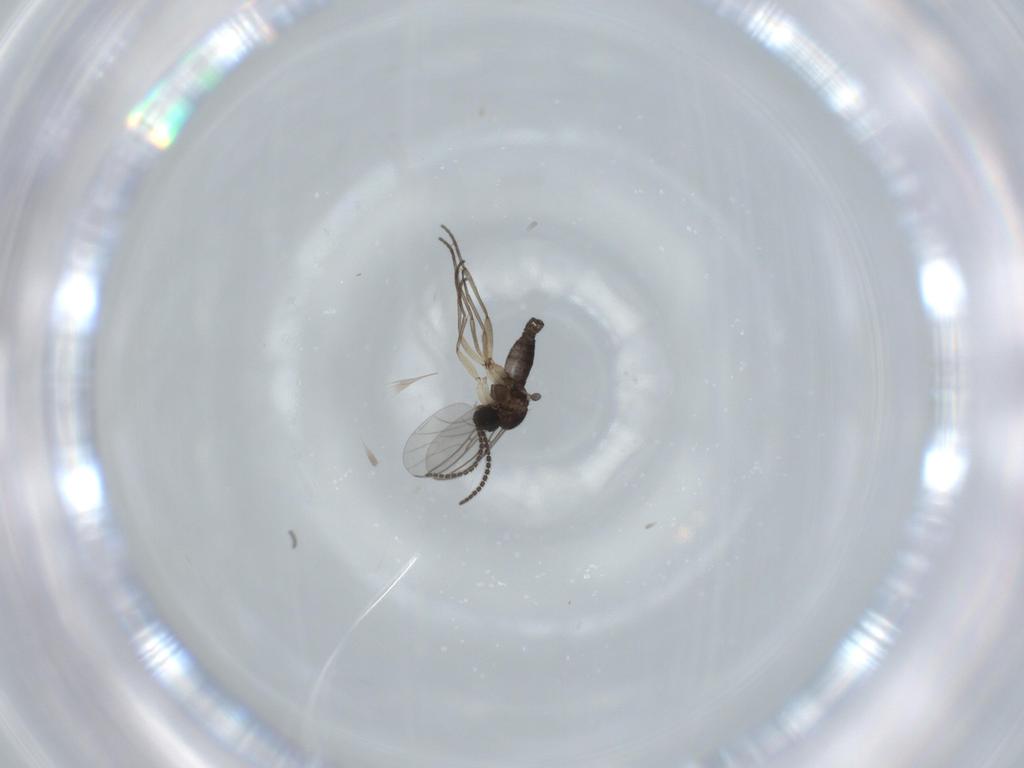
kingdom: Animalia
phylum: Arthropoda
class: Insecta
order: Diptera
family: Sciaridae
